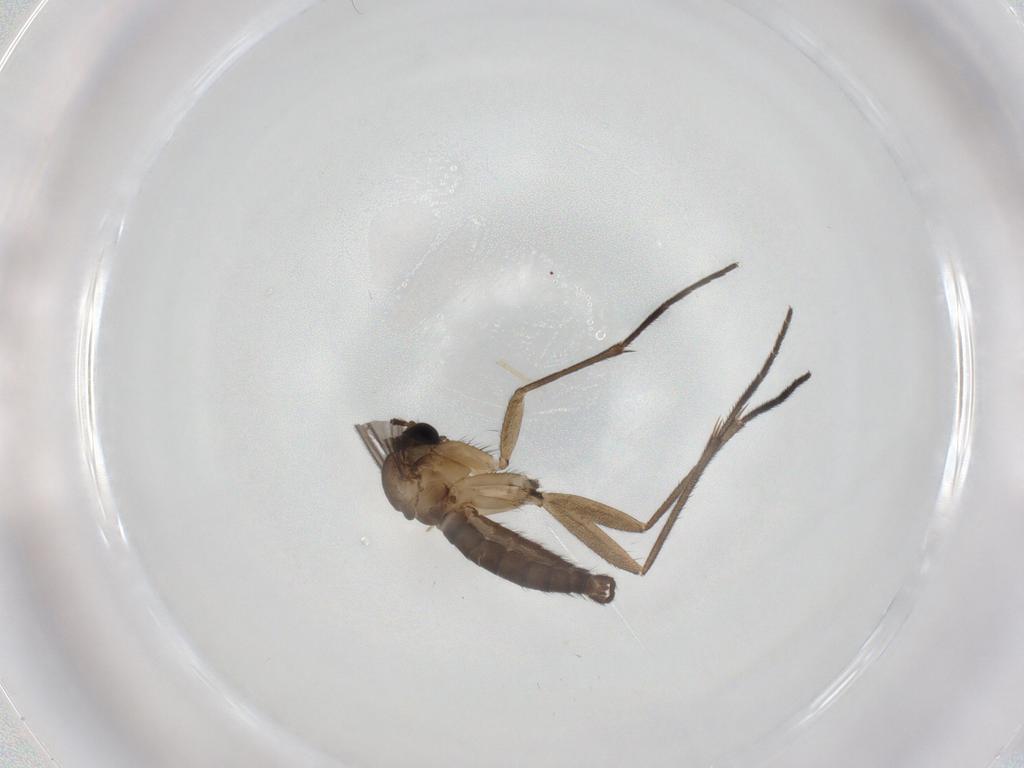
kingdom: Animalia
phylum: Arthropoda
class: Insecta
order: Diptera
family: Sciaridae
